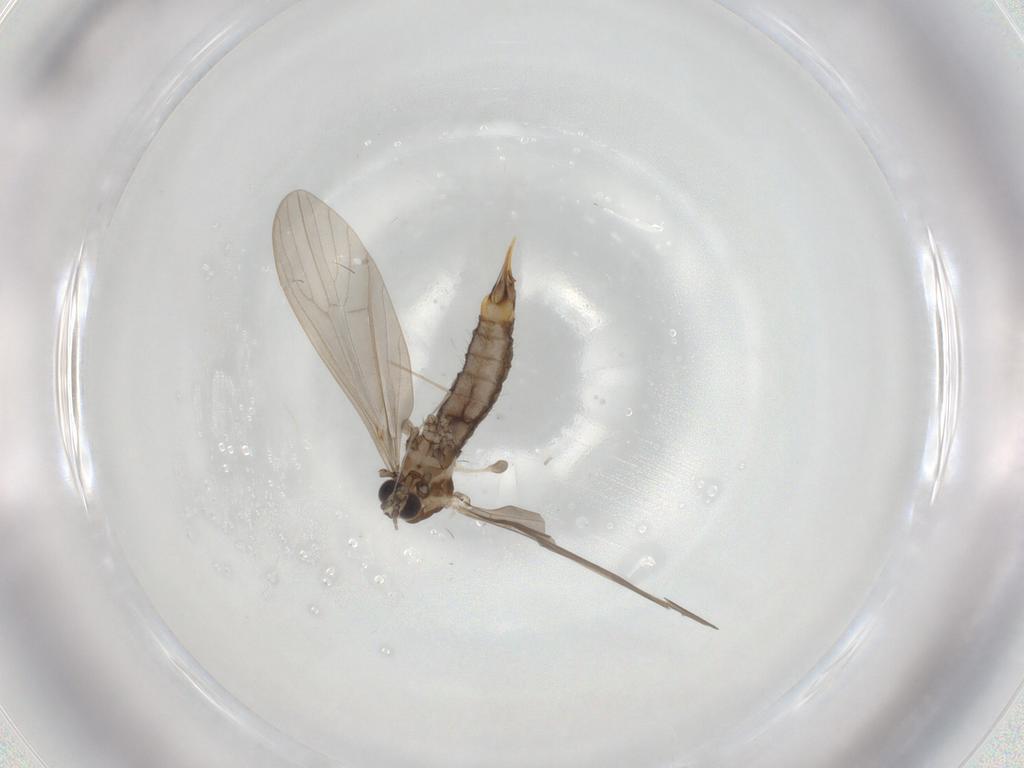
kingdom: Animalia
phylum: Arthropoda
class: Insecta
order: Diptera
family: Limoniidae
